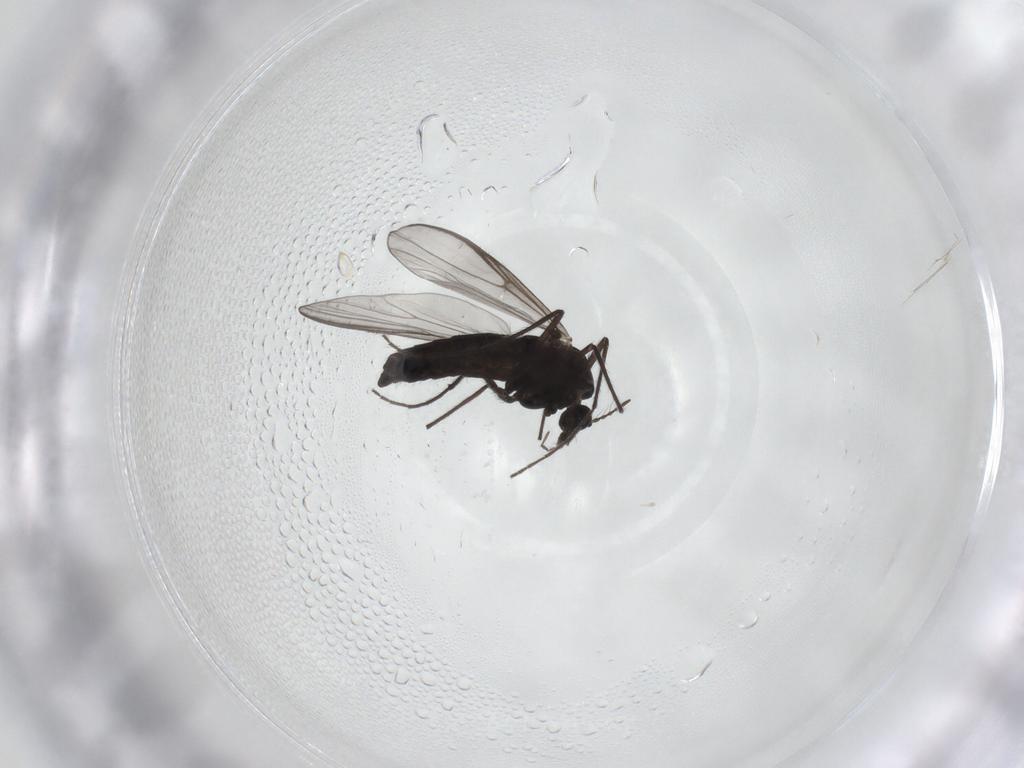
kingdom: Animalia
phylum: Arthropoda
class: Insecta
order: Diptera
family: Chironomidae
